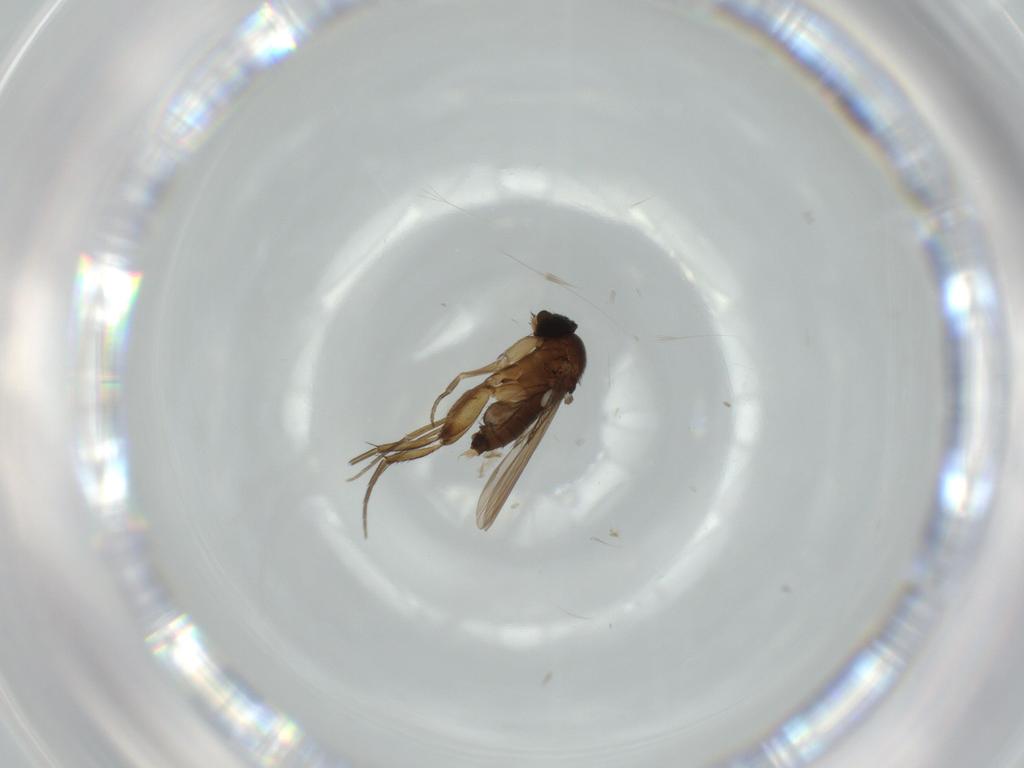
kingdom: Animalia
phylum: Arthropoda
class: Insecta
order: Diptera
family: Phoridae
